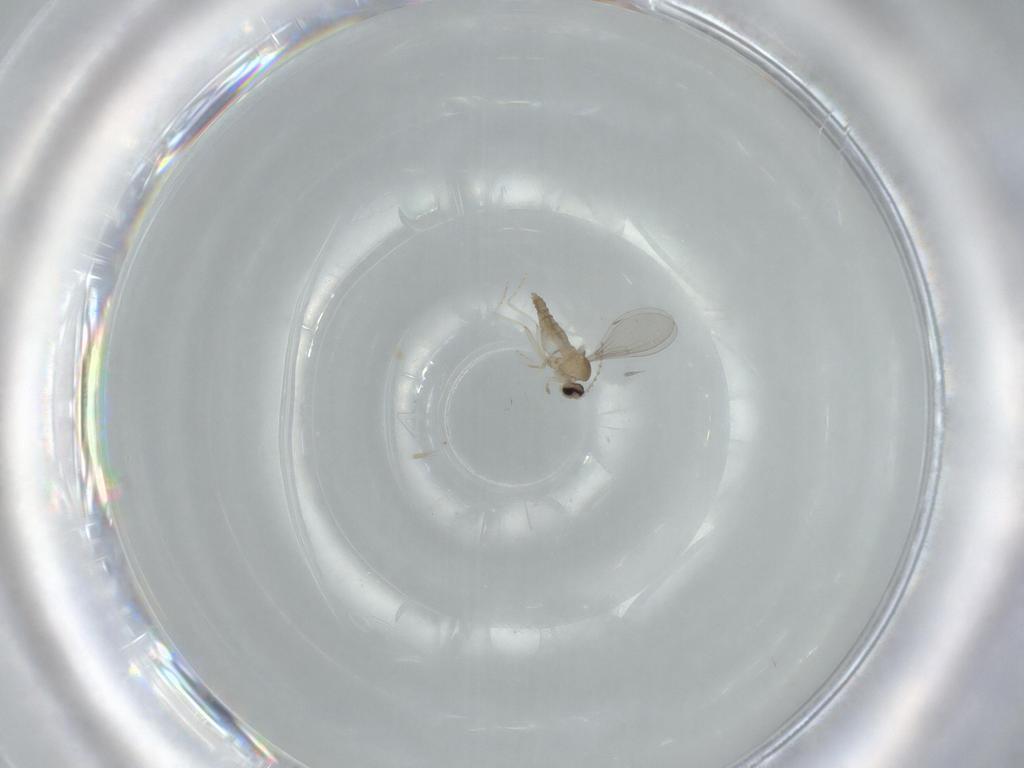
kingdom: Animalia
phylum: Arthropoda
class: Insecta
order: Diptera
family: Cecidomyiidae
